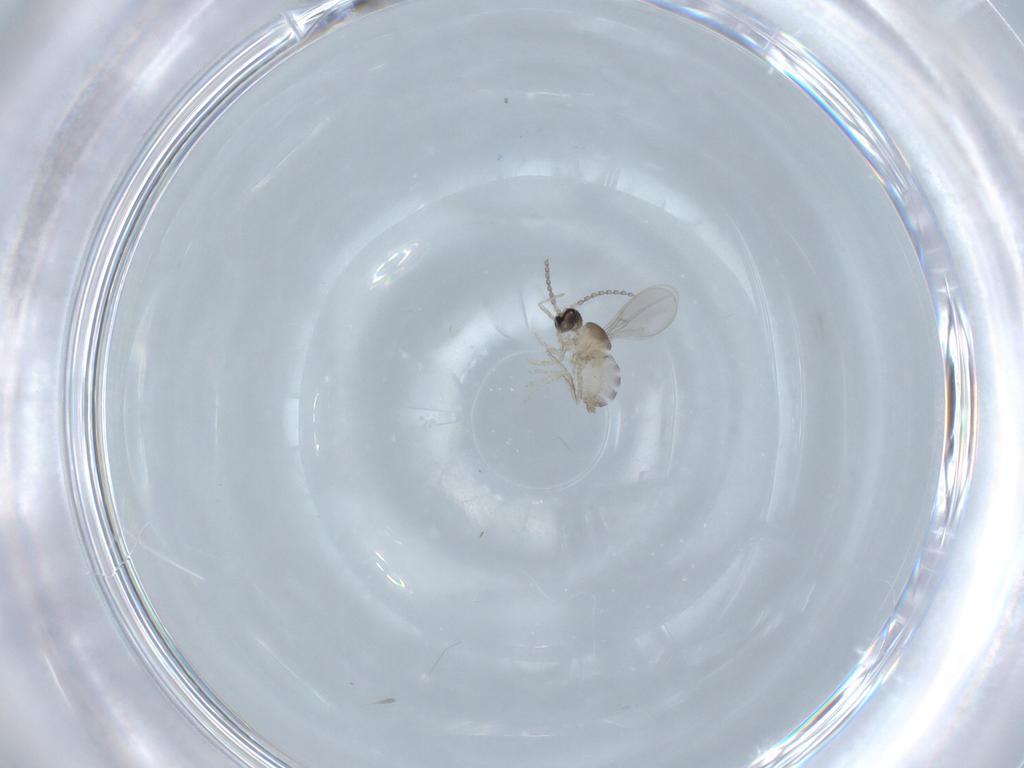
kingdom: Animalia
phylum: Arthropoda
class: Insecta
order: Diptera
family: Cecidomyiidae
